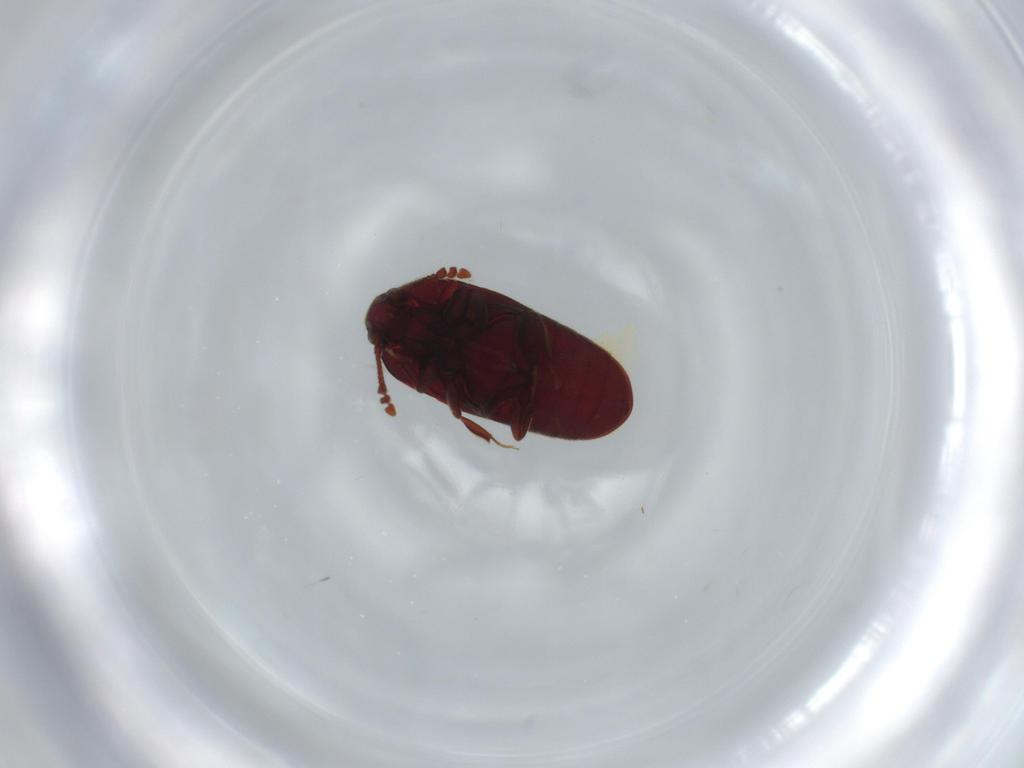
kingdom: Animalia
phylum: Arthropoda
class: Insecta
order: Coleoptera
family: Throscidae
